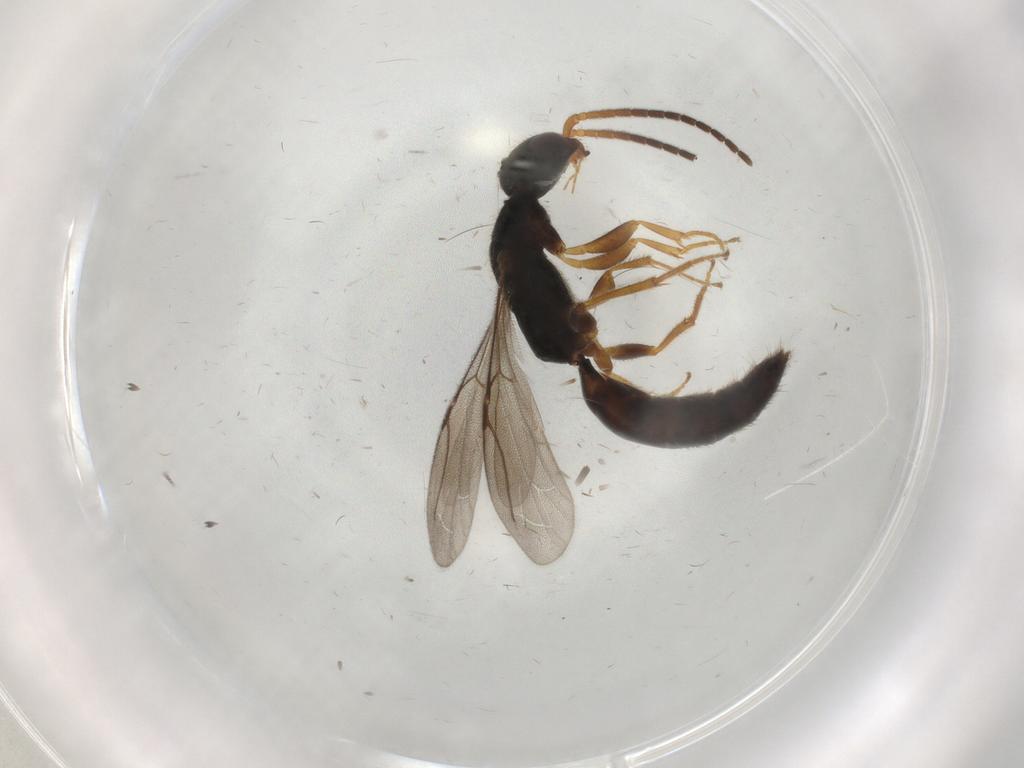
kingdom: Animalia
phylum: Arthropoda
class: Insecta
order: Hymenoptera
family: Bethylidae
